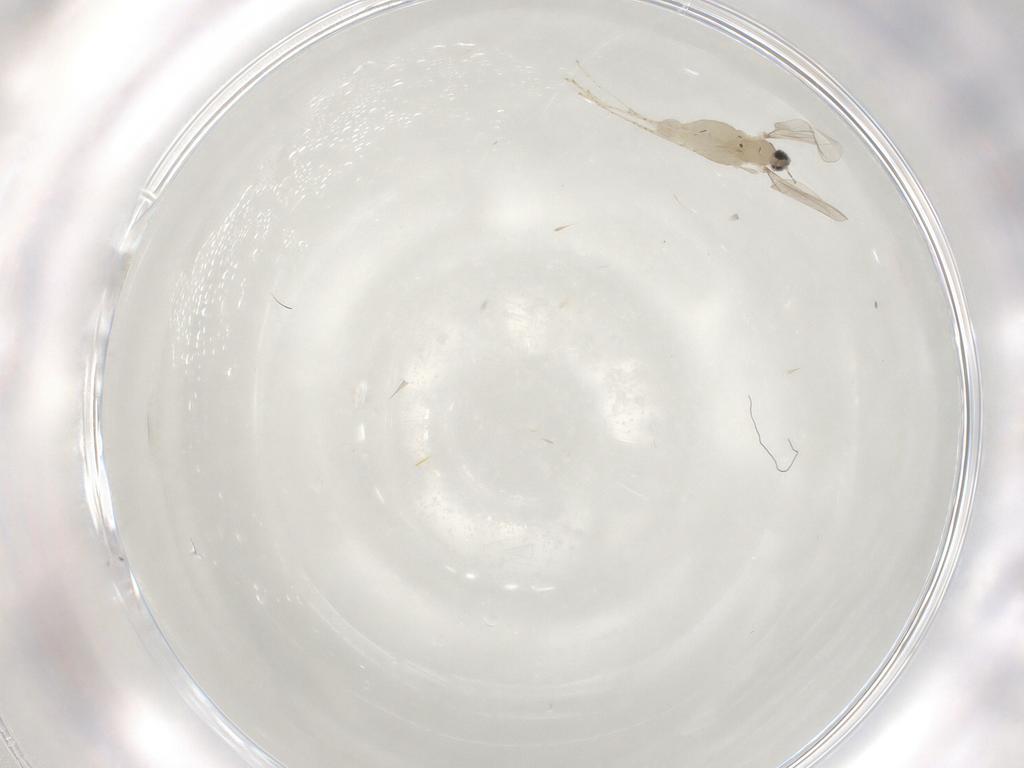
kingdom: Animalia
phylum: Arthropoda
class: Insecta
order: Diptera
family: Cecidomyiidae
